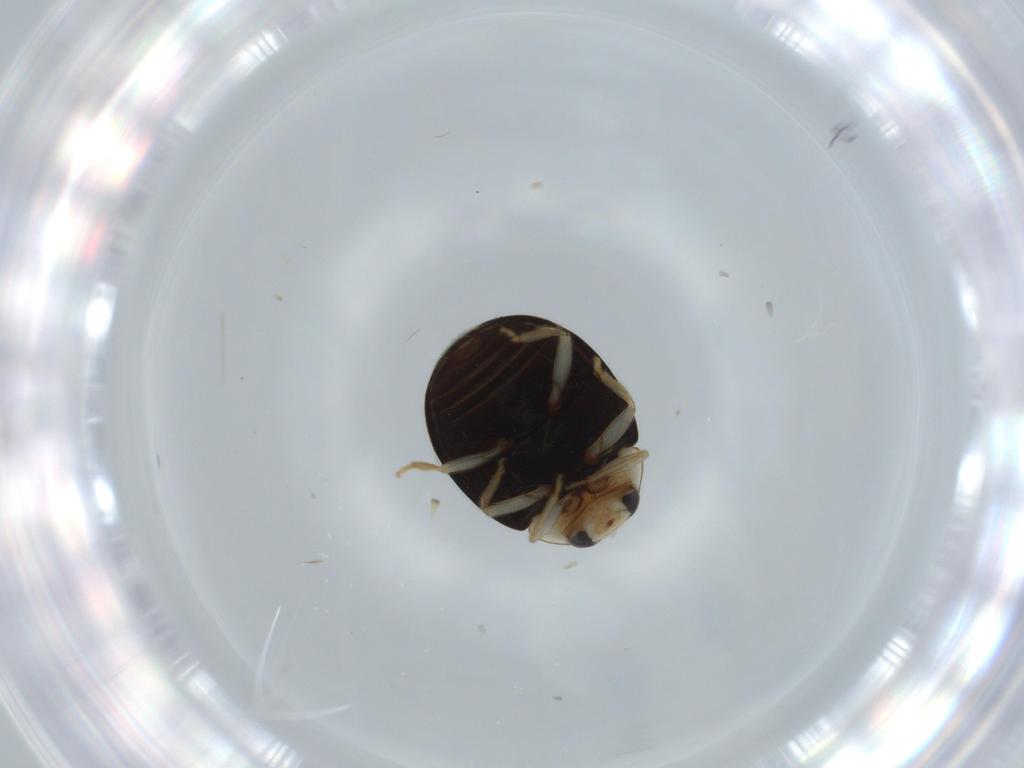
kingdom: Animalia
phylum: Arthropoda
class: Insecta
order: Coleoptera
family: Coccinellidae
